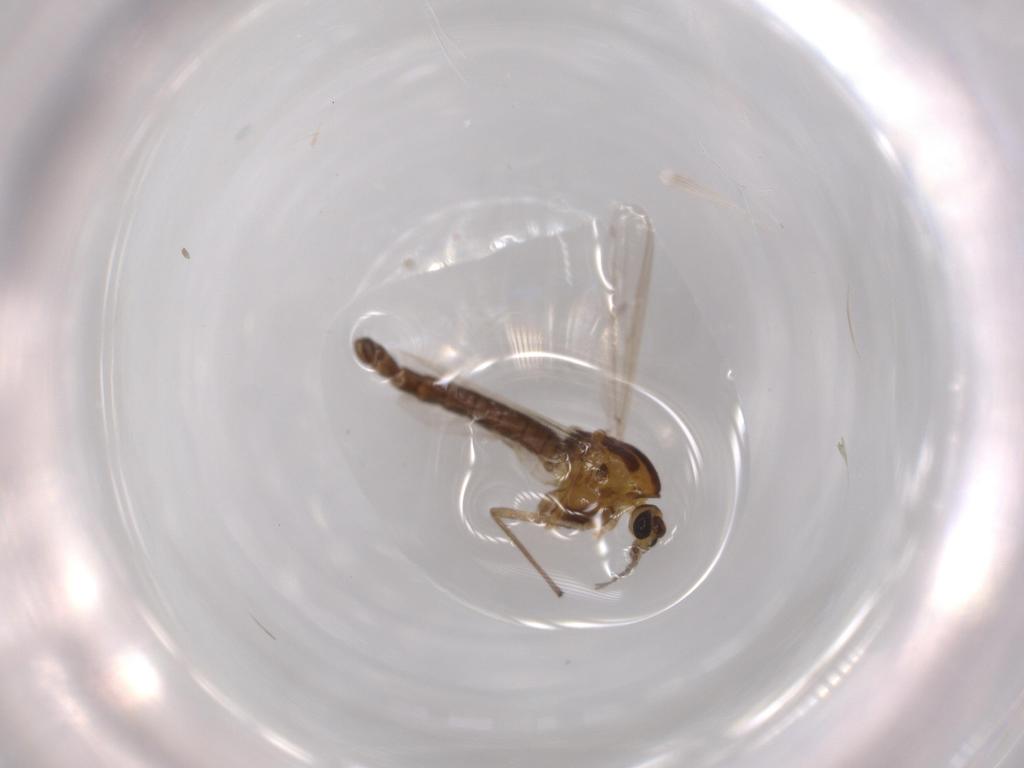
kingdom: Animalia
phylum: Arthropoda
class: Insecta
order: Diptera
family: Chironomidae
